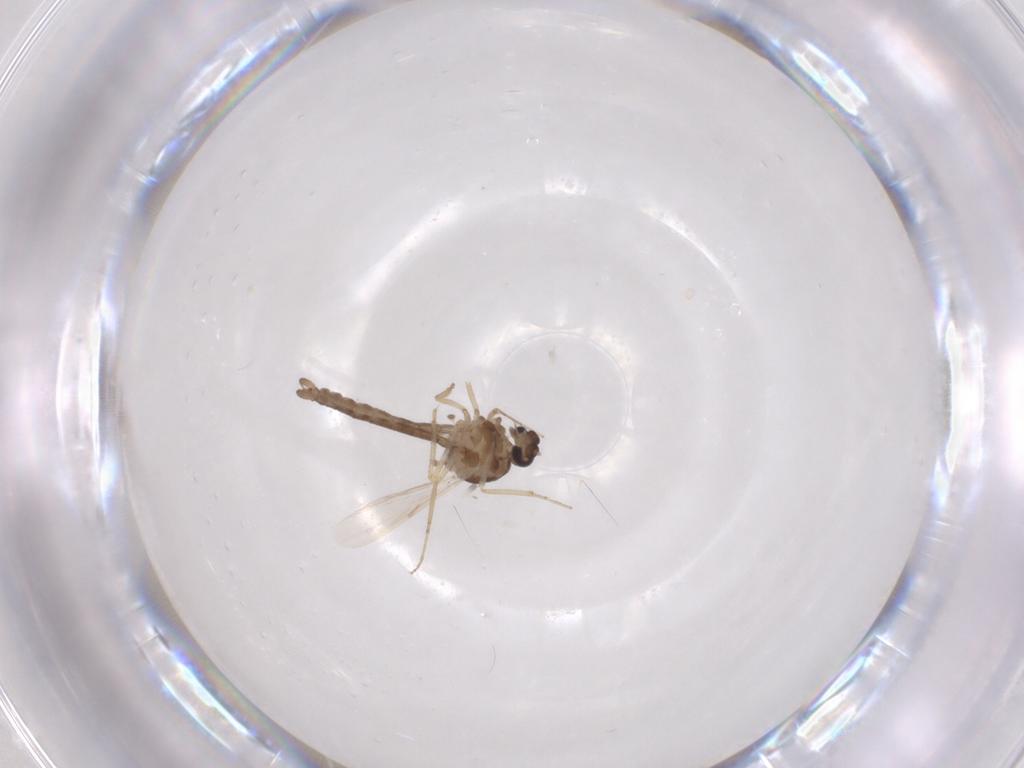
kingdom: Animalia
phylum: Arthropoda
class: Insecta
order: Diptera
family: Ceratopogonidae
